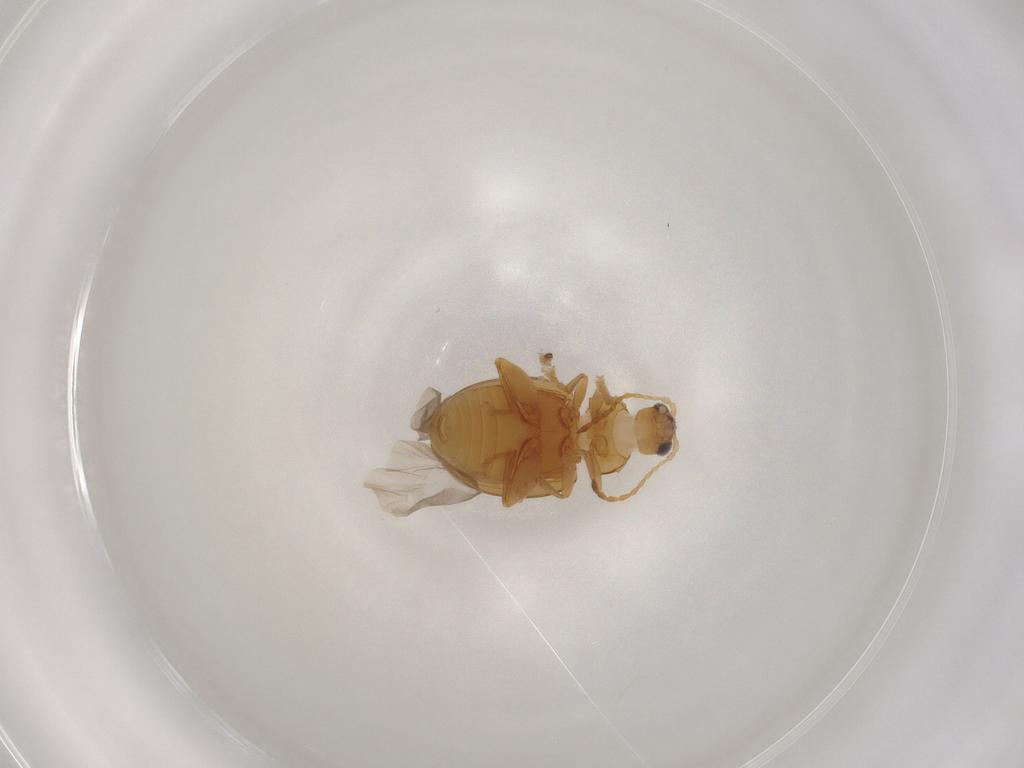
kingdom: Animalia
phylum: Arthropoda
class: Insecta
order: Coleoptera
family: Chrysomelidae
